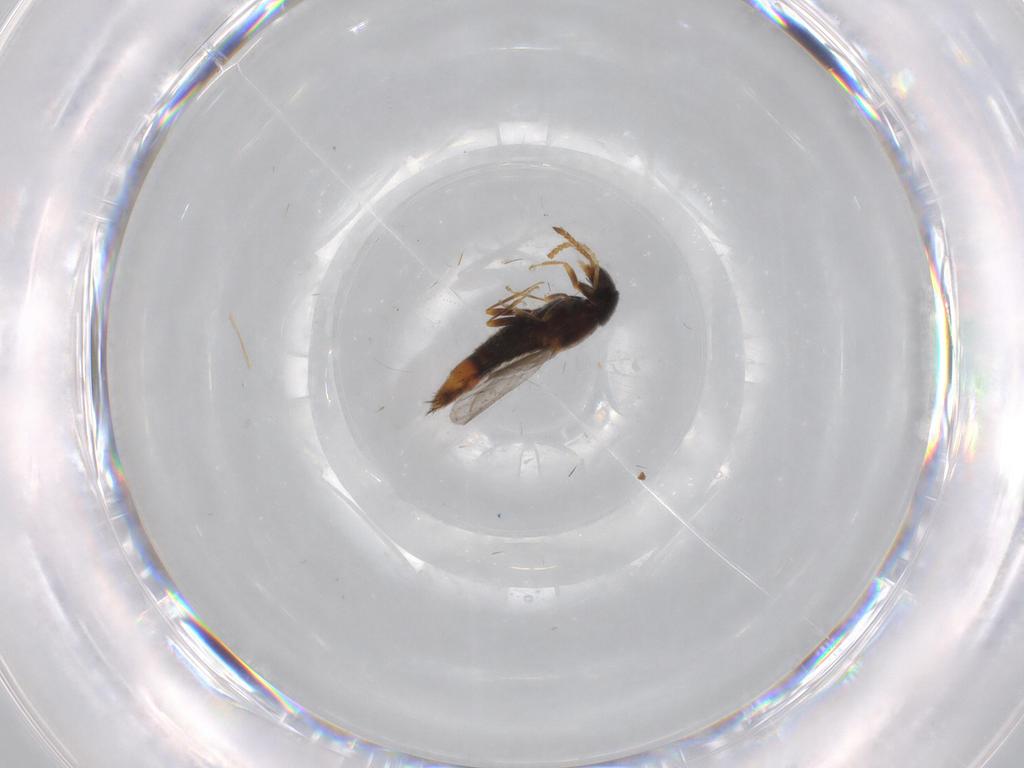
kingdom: Animalia
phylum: Arthropoda
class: Insecta
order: Coleoptera
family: Staphylinidae
